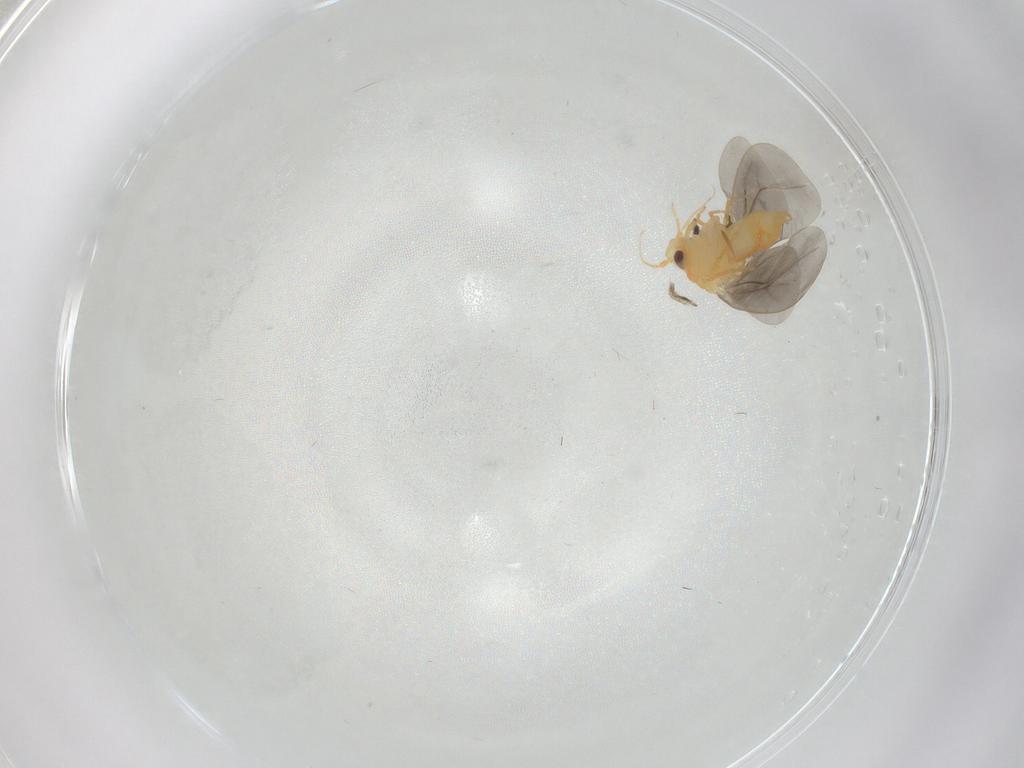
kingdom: Animalia
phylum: Arthropoda
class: Insecta
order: Hemiptera
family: Aleyrodidae
